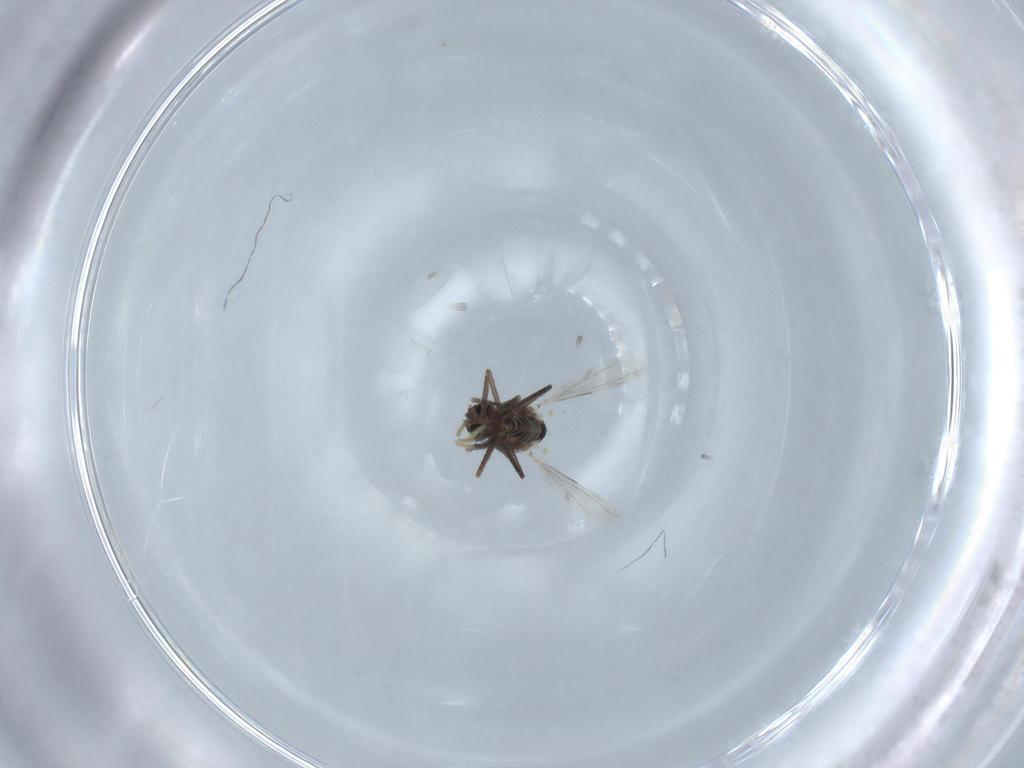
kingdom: Animalia
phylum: Arthropoda
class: Insecta
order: Diptera
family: Ceratopogonidae
